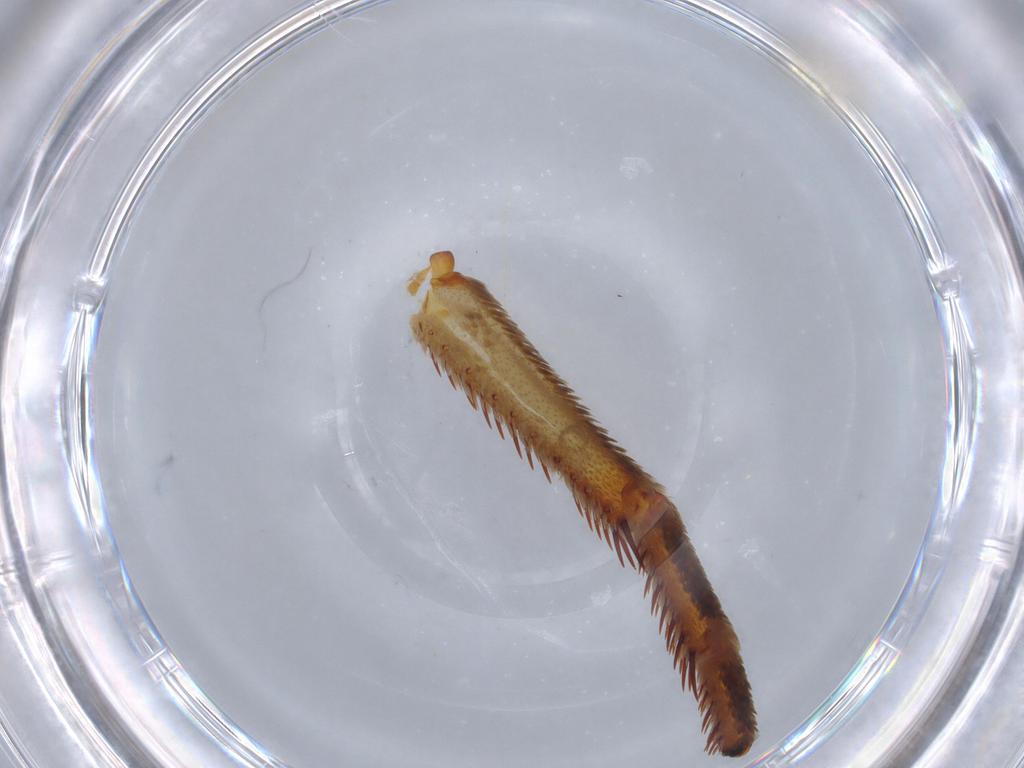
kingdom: Animalia
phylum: Arthropoda
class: Insecta
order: Diptera
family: Ceratopogonidae
